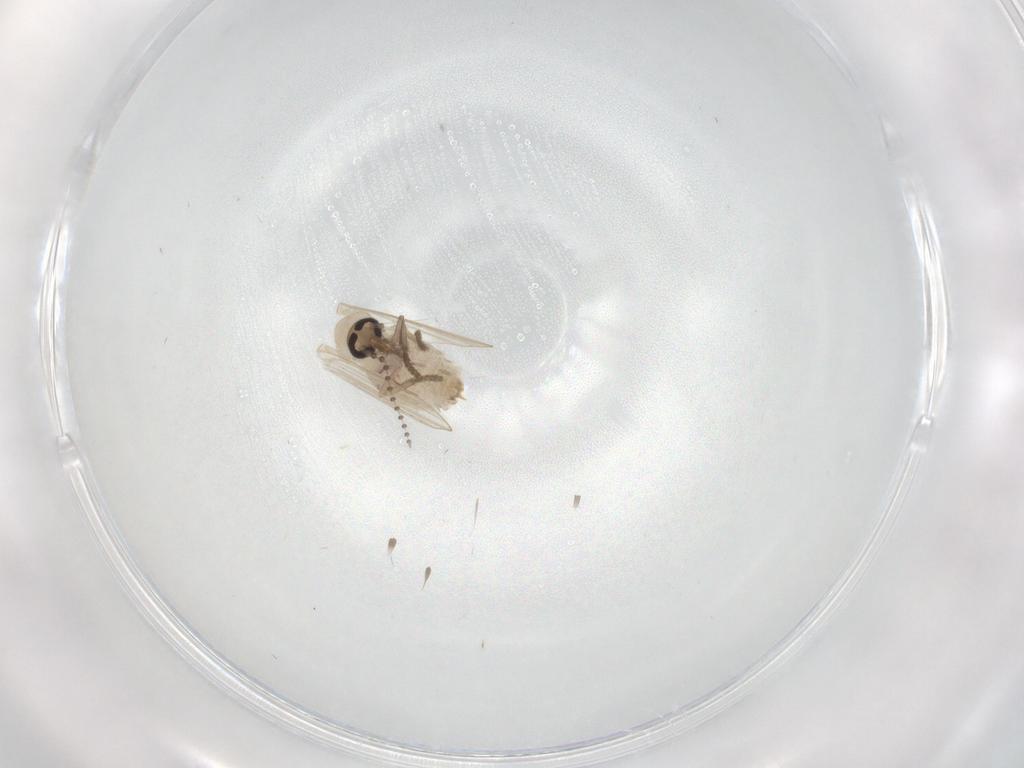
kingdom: Animalia
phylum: Arthropoda
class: Insecta
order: Diptera
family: Psychodidae
